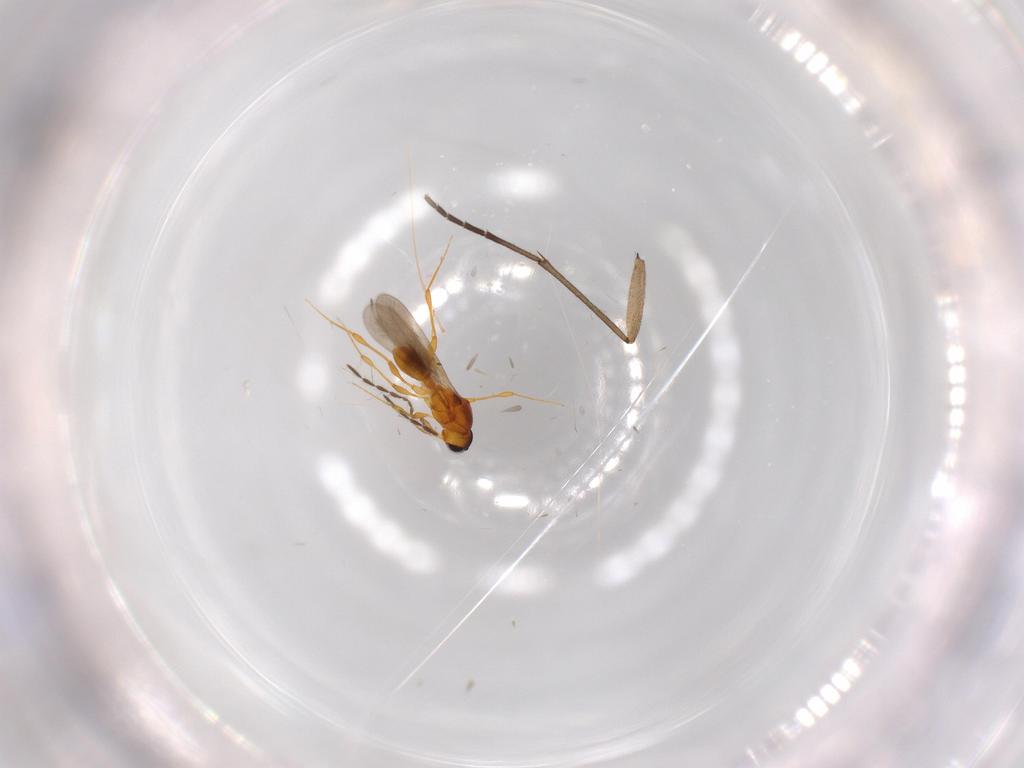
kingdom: Animalia
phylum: Arthropoda
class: Insecta
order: Hymenoptera
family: Platygastridae
